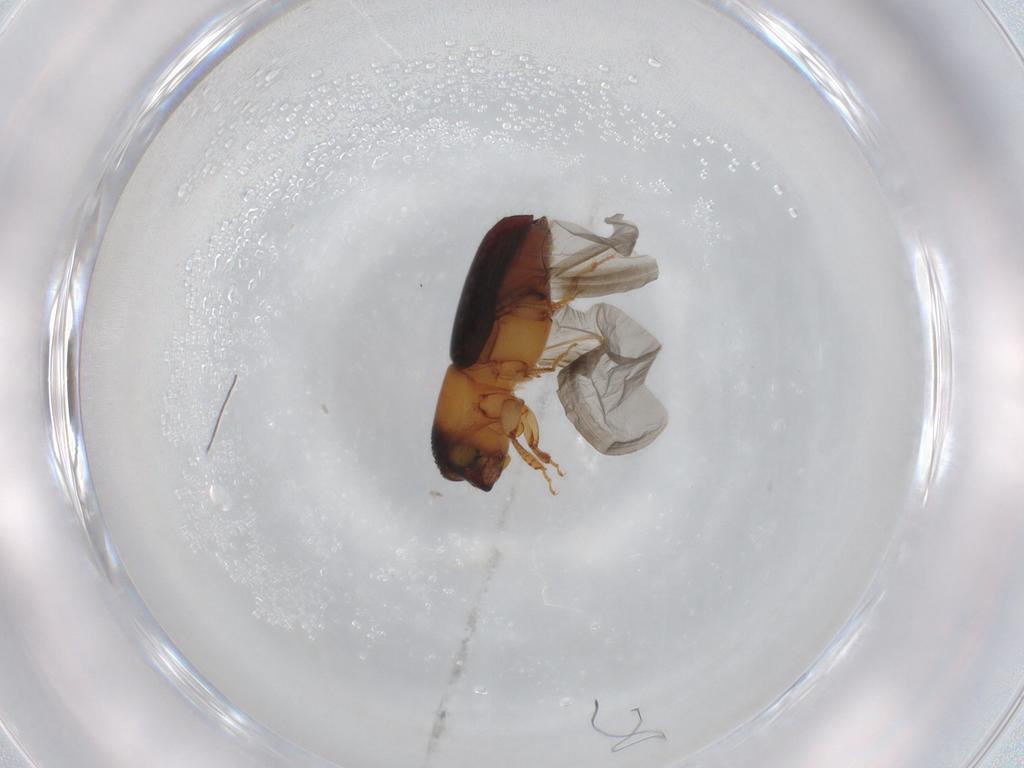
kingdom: Animalia
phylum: Arthropoda
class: Insecta
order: Coleoptera
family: Curculionidae
